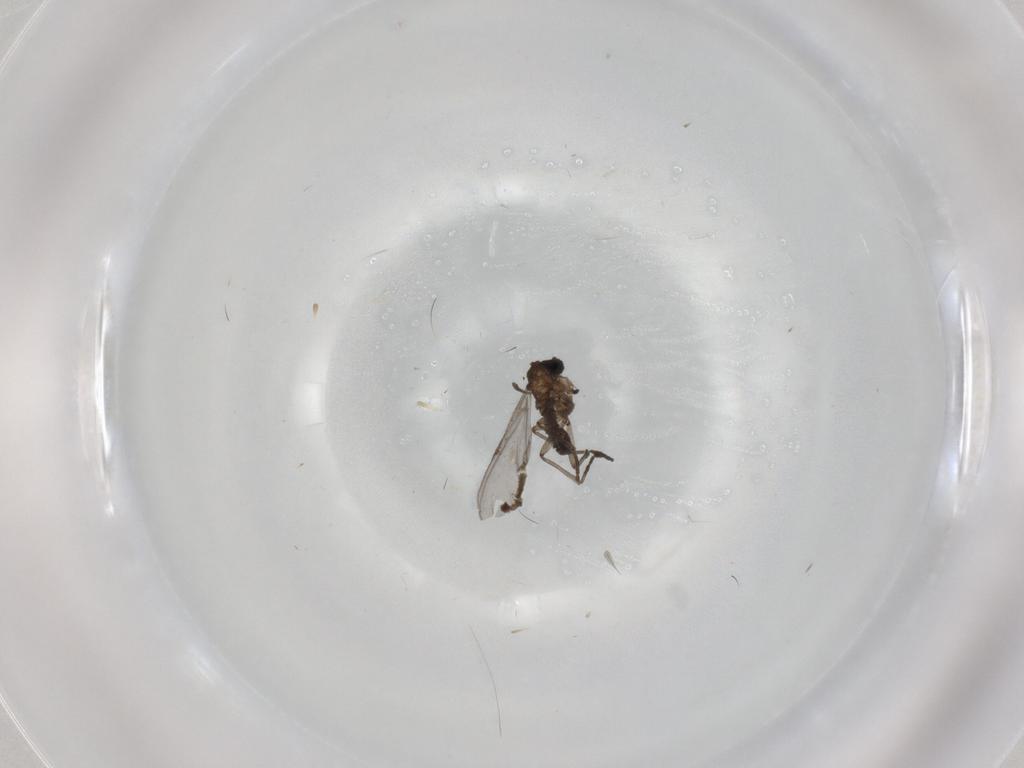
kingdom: Animalia
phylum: Arthropoda
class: Insecta
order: Diptera
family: Sciaridae
